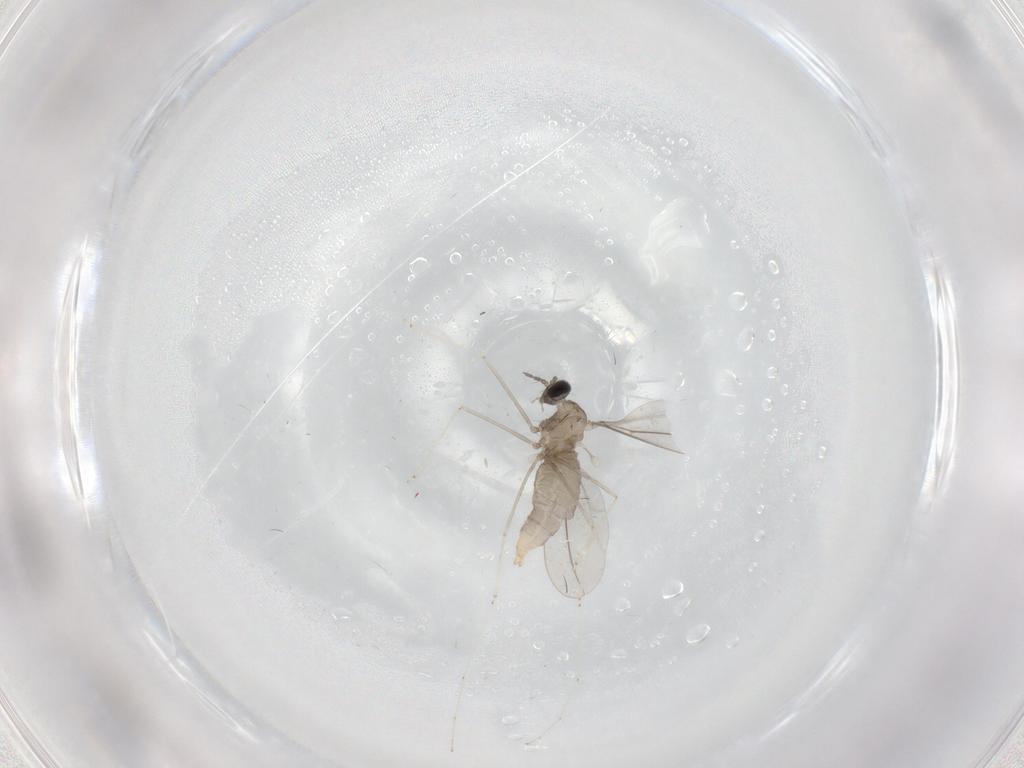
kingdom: Animalia
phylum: Arthropoda
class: Insecta
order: Diptera
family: Cecidomyiidae
